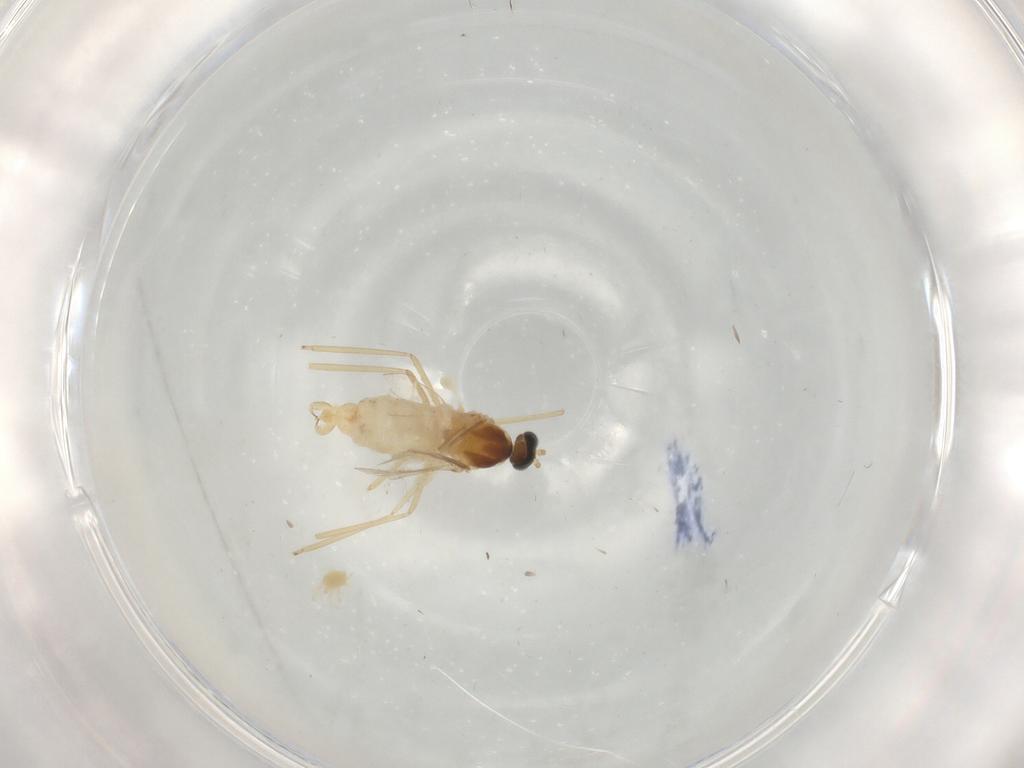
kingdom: Animalia
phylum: Arthropoda
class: Insecta
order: Diptera
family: Cecidomyiidae
